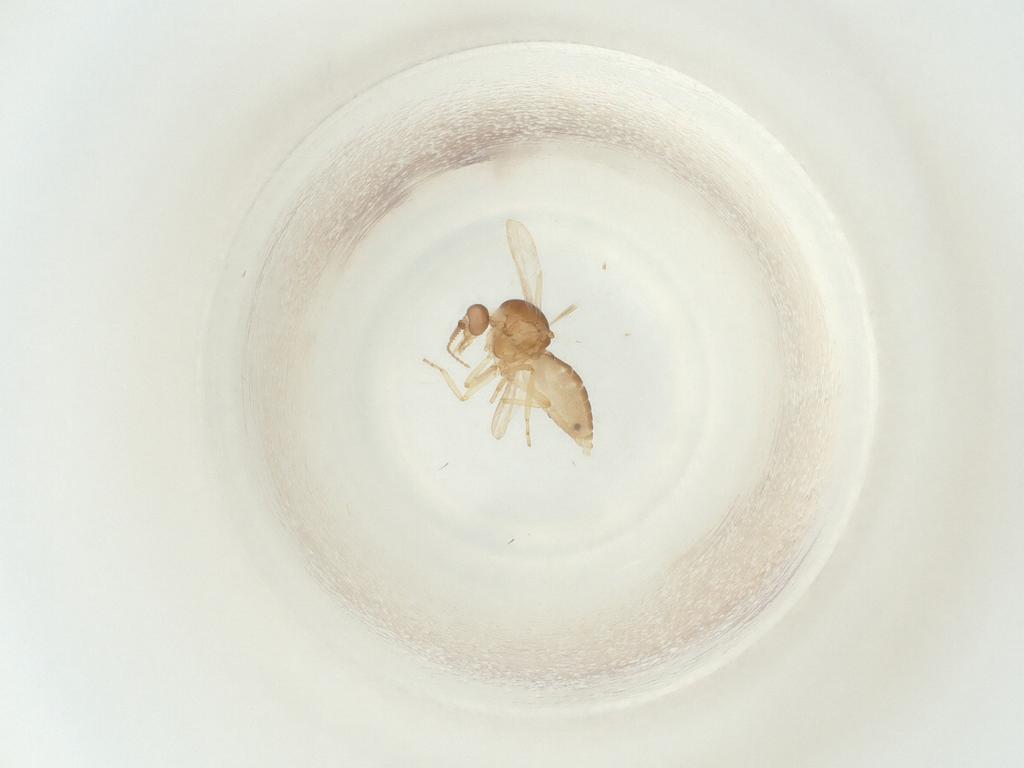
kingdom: Animalia
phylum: Arthropoda
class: Insecta
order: Diptera
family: Ceratopogonidae
